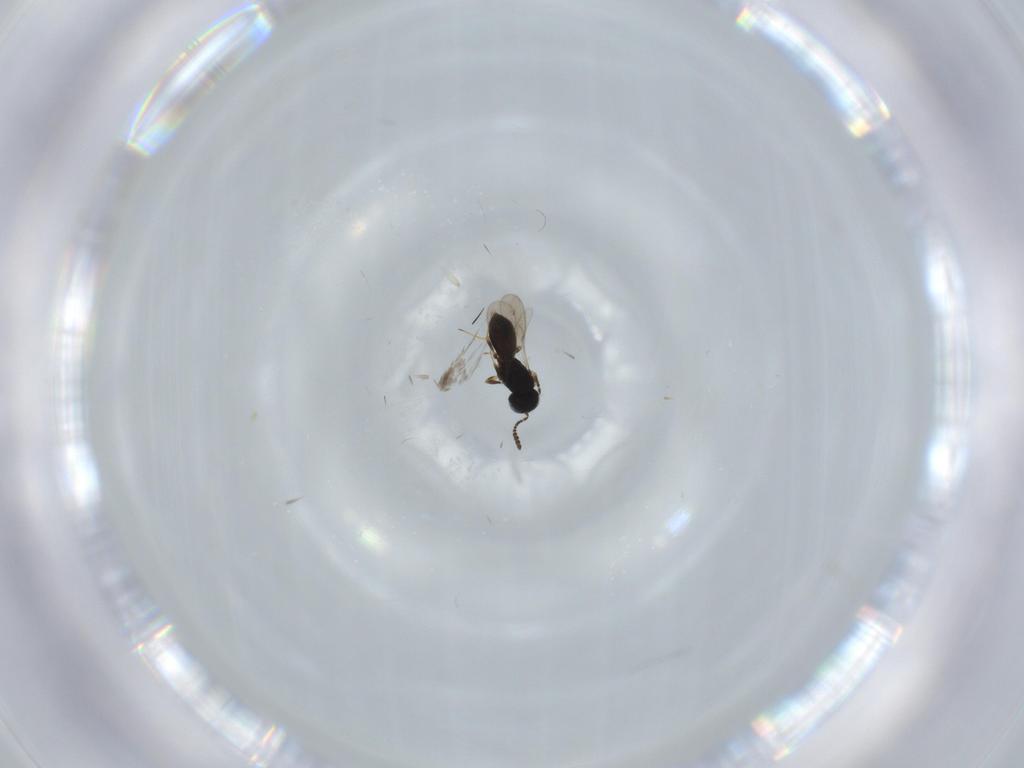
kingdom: Animalia
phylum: Arthropoda
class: Insecta
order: Hymenoptera
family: Scelionidae
